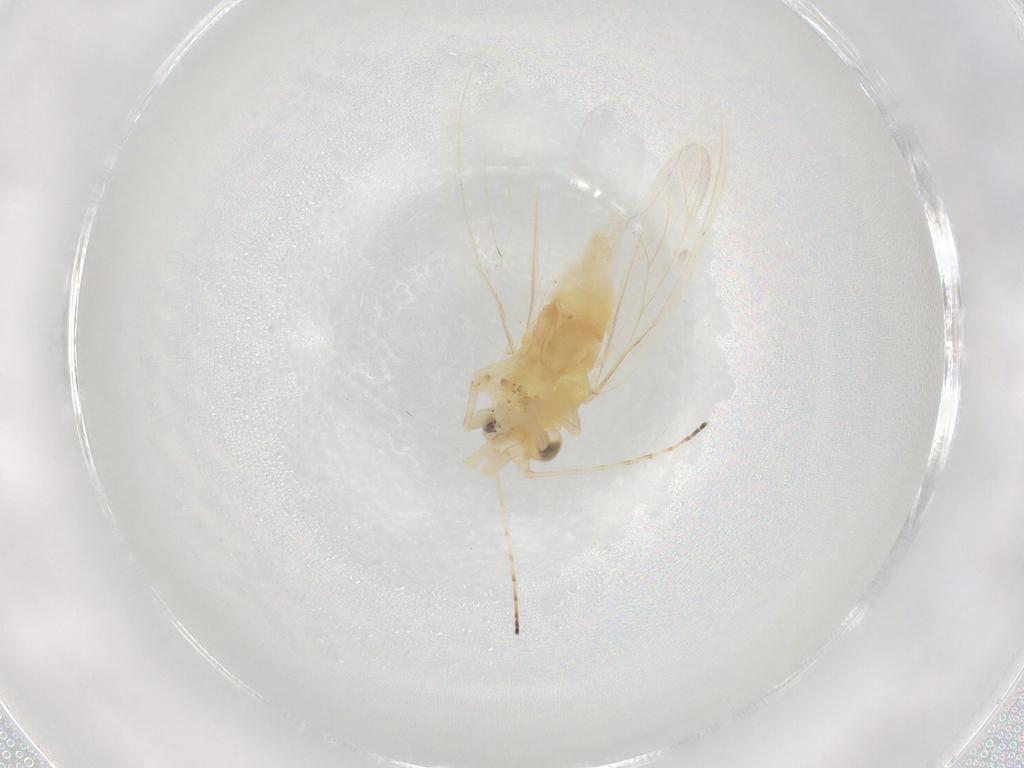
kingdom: Animalia
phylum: Arthropoda
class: Insecta
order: Hemiptera
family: Aphalaridae
